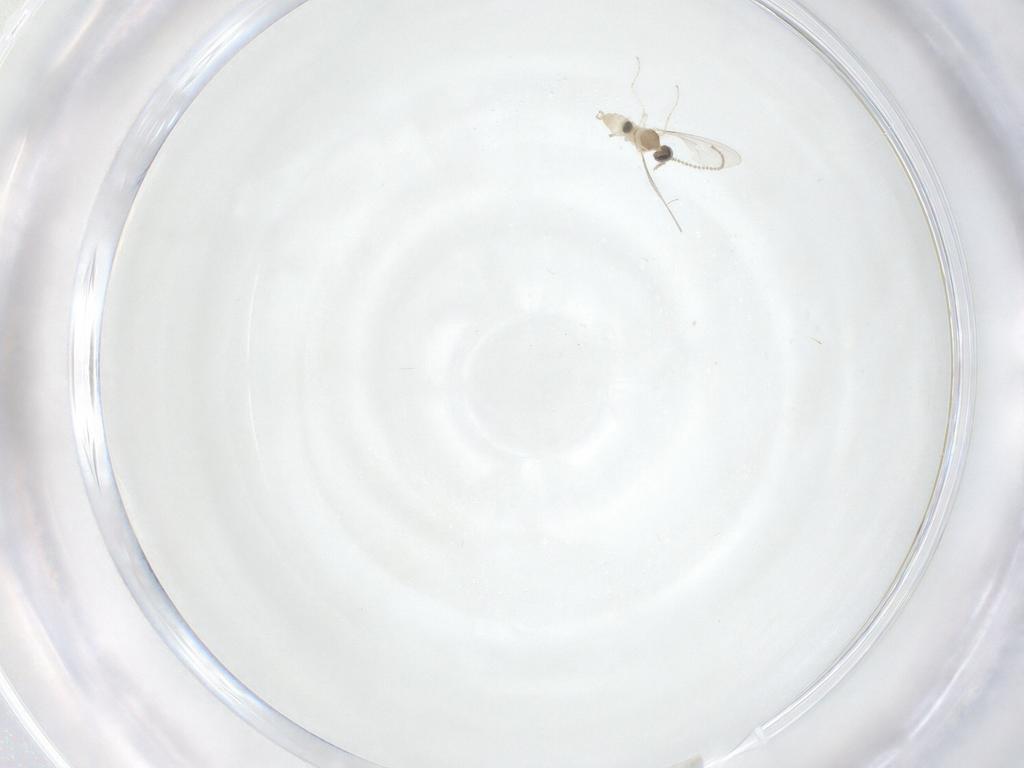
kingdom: Animalia
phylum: Arthropoda
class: Insecta
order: Diptera
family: Cecidomyiidae
